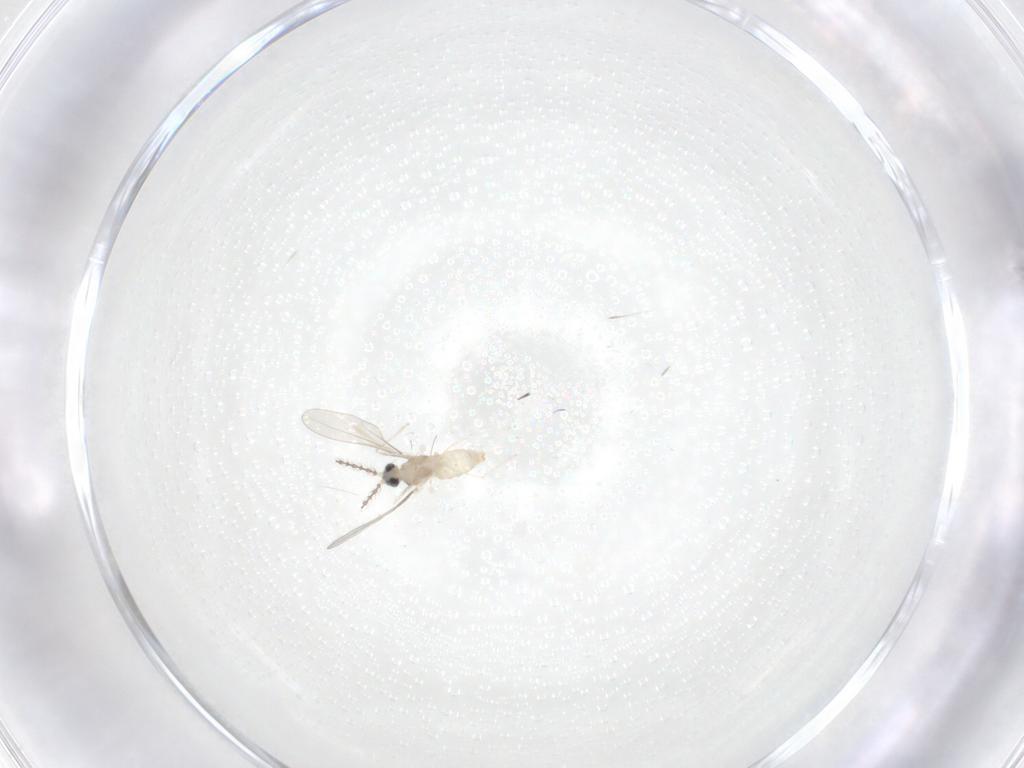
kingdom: Animalia
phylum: Arthropoda
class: Insecta
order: Diptera
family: Cecidomyiidae
